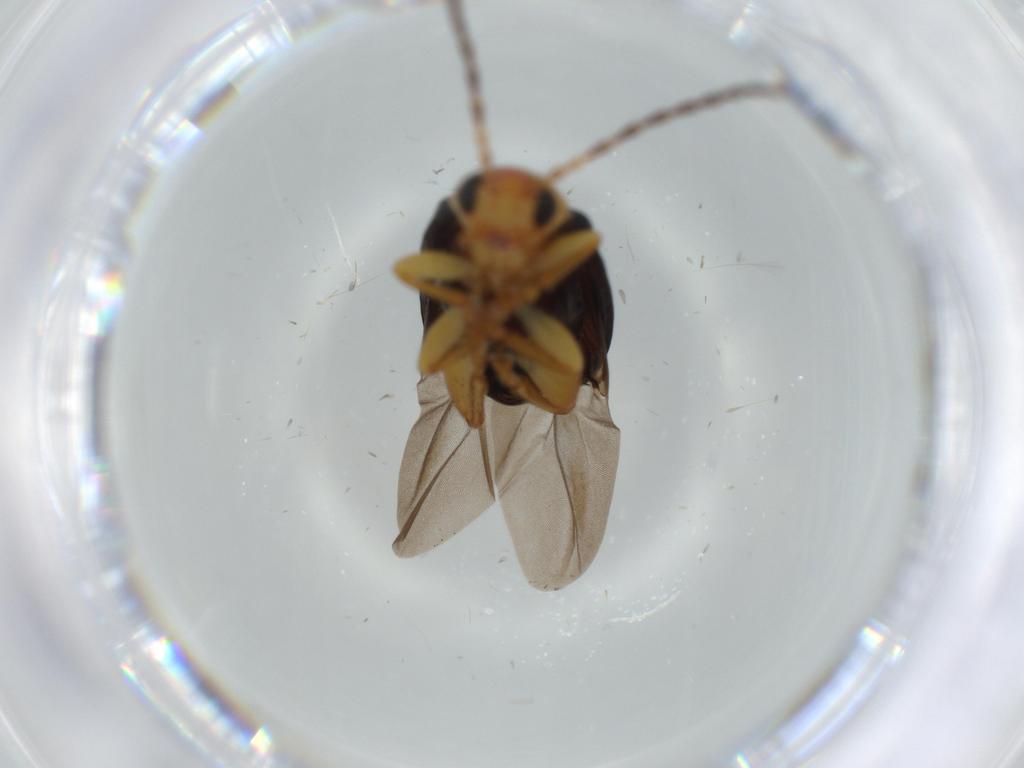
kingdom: Animalia
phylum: Arthropoda
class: Insecta
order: Coleoptera
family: Chrysomelidae
